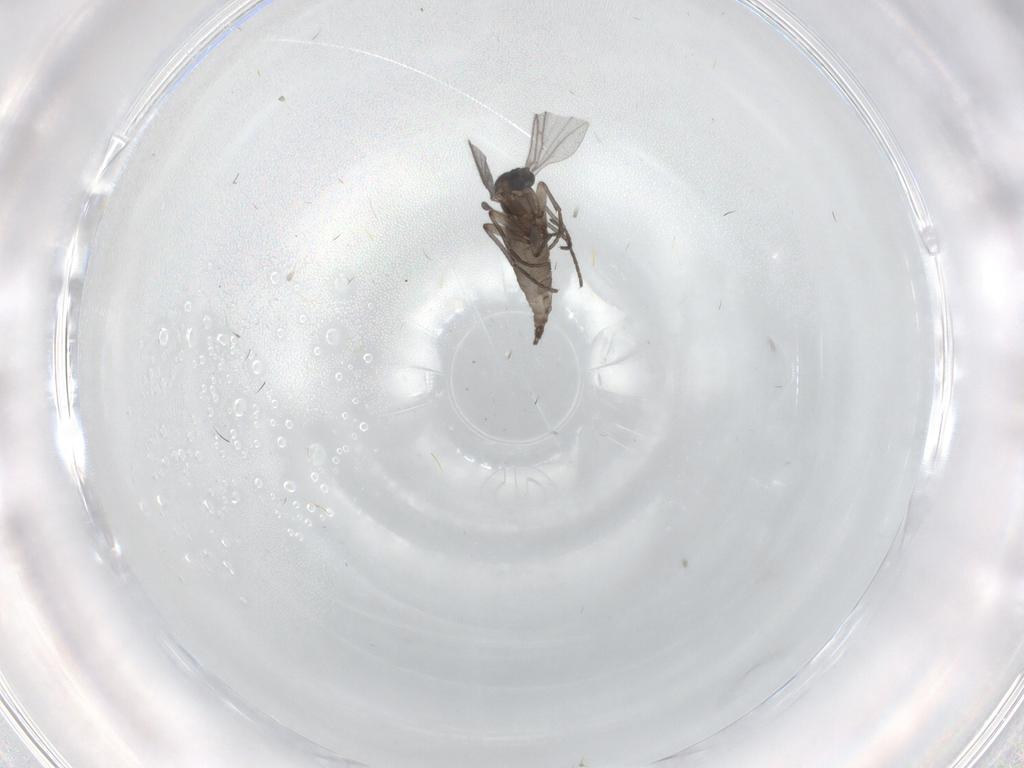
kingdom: Animalia
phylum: Arthropoda
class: Insecta
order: Diptera
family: Sciaridae
